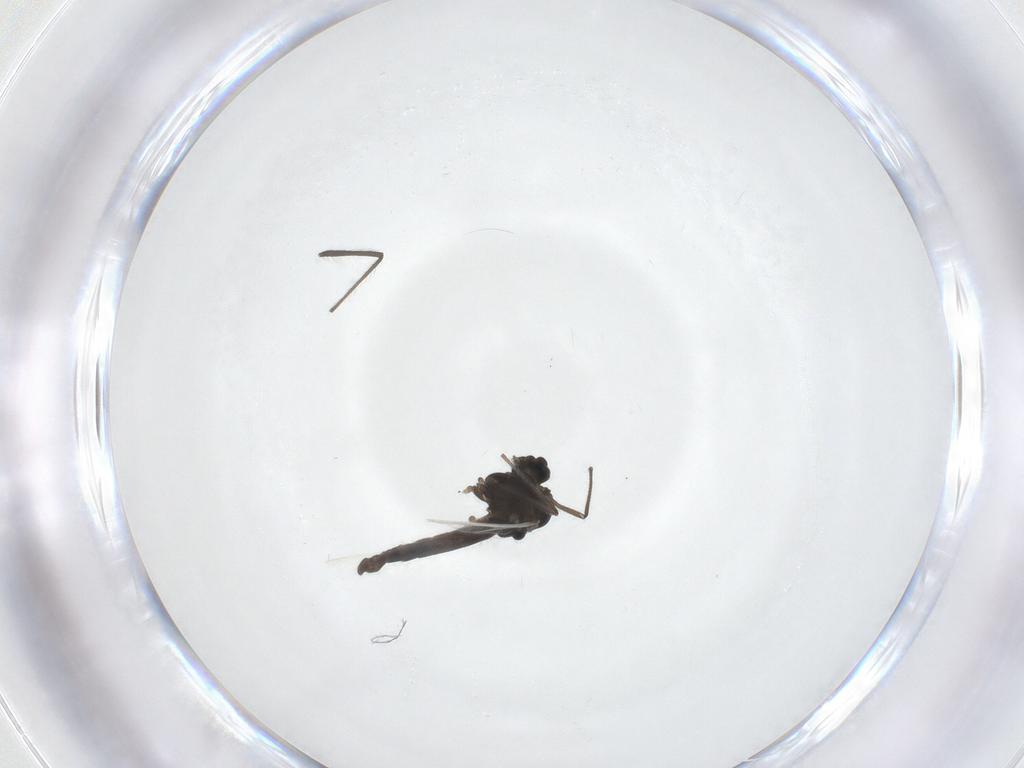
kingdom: Animalia
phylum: Arthropoda
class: Insecta
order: Diptera
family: Chironomidae
